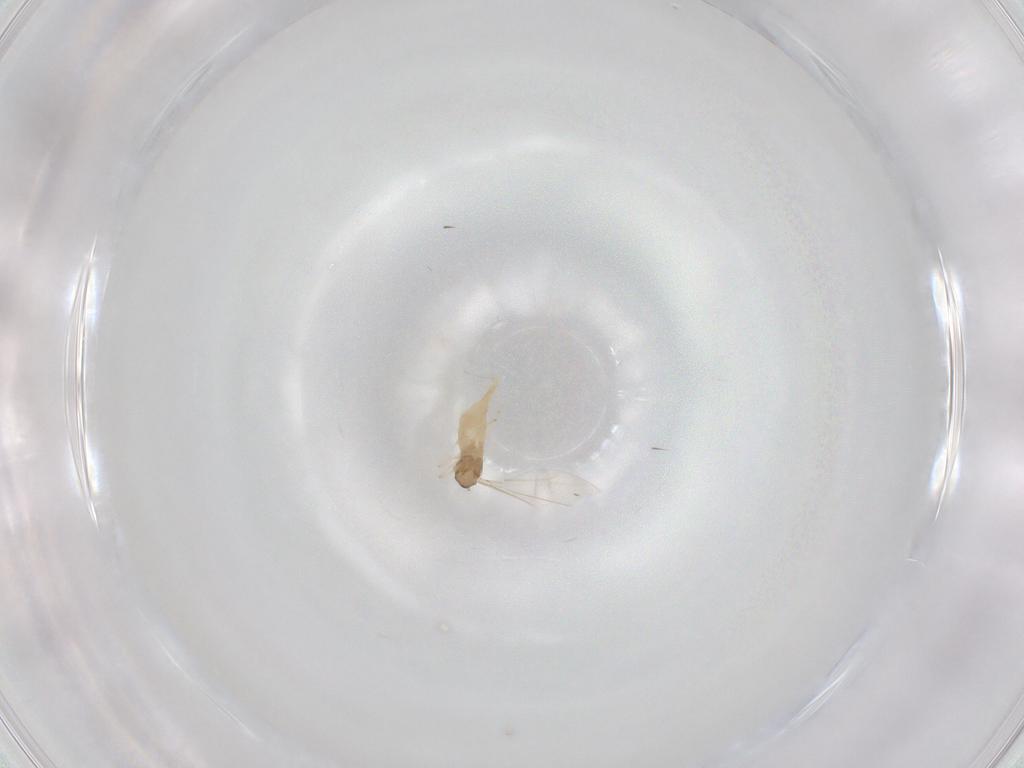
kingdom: Animalia
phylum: Arthropoda
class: Insecta
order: Diptera
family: Cecidomyiidae
